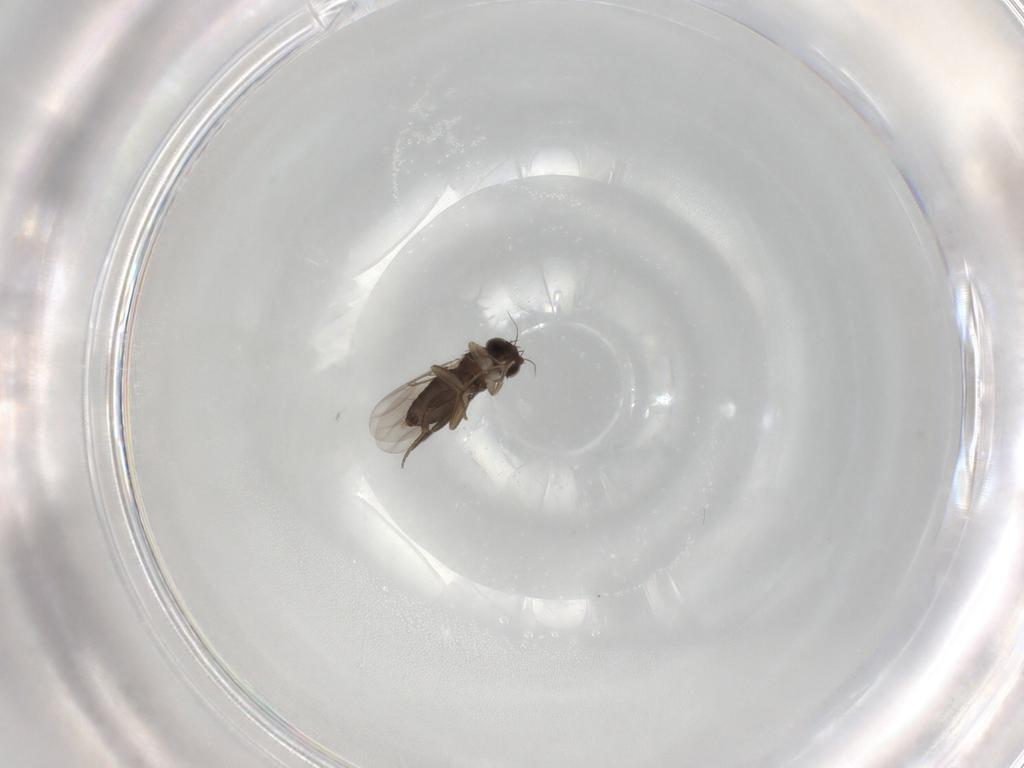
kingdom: Animalia
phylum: Arthropoda
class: Insecta
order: Diptera
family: Phoridae
